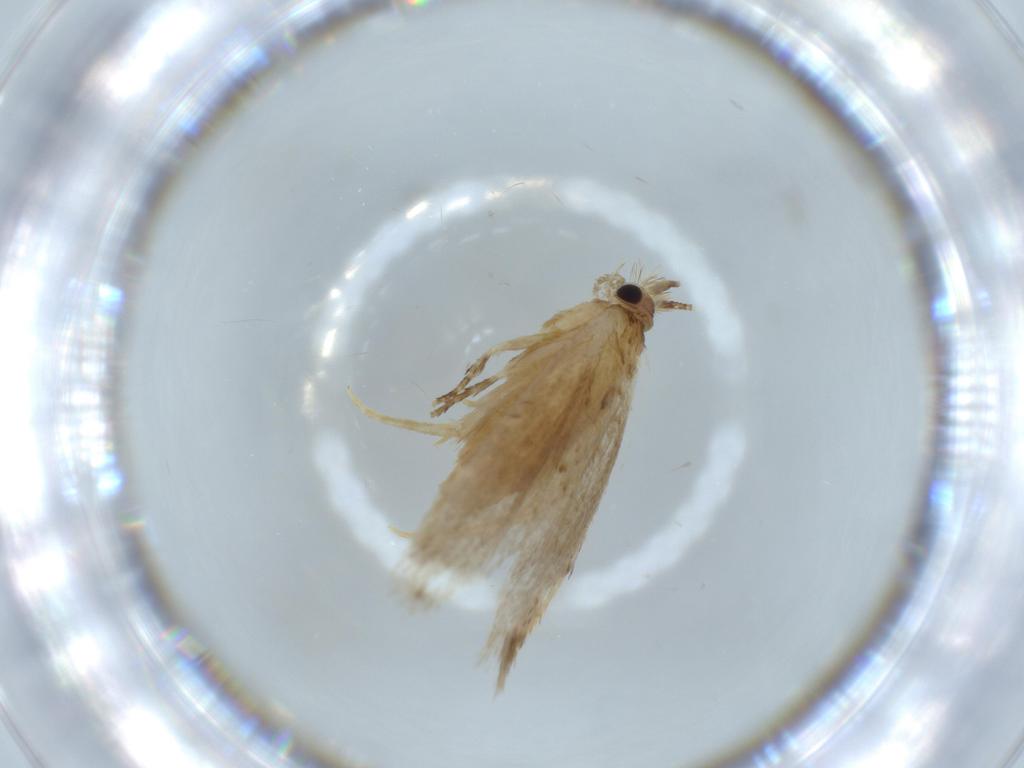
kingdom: Animalia
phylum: Arthropoda
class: Insecta
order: Lepidoptera
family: Tineidae
